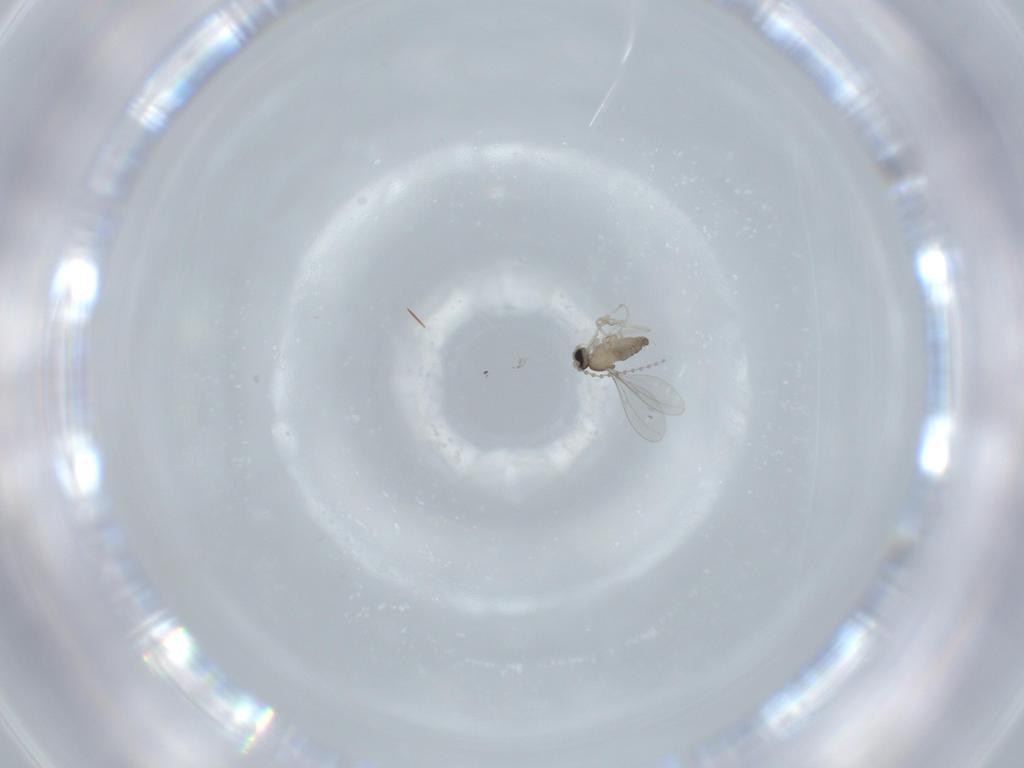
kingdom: Animalia
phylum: Arthropoda
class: Insecta
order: Diptera
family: Cecidomyiidae
